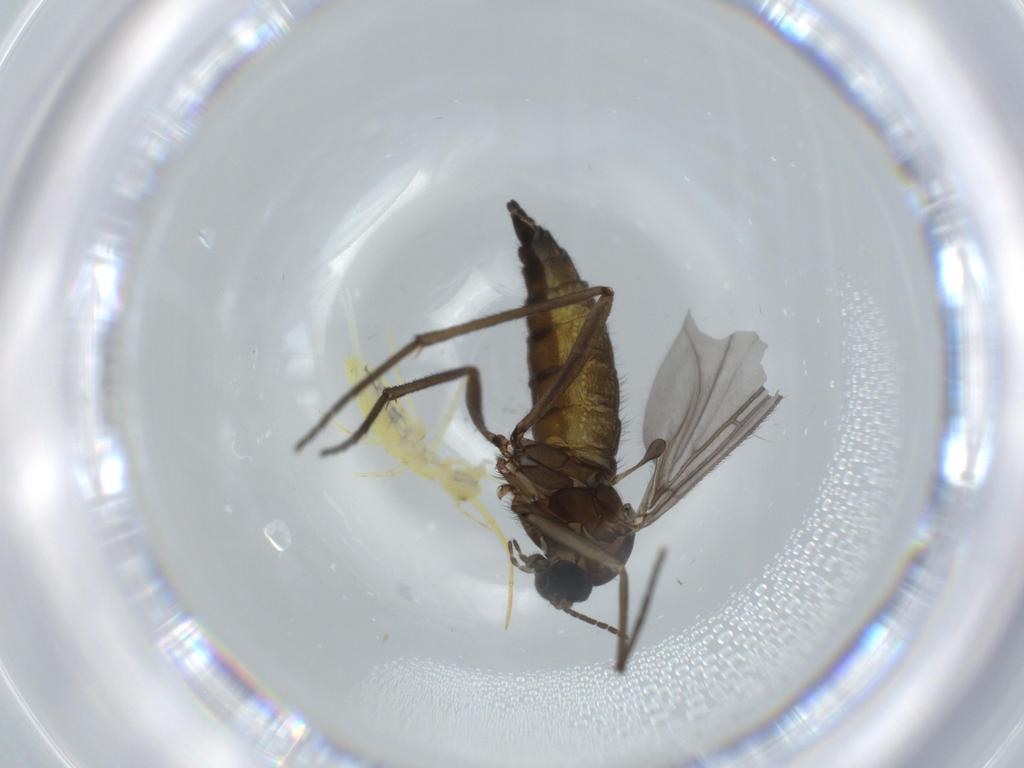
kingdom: Animalia
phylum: Arthropoda
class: Insecta
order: Diptera
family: Sciaridae
